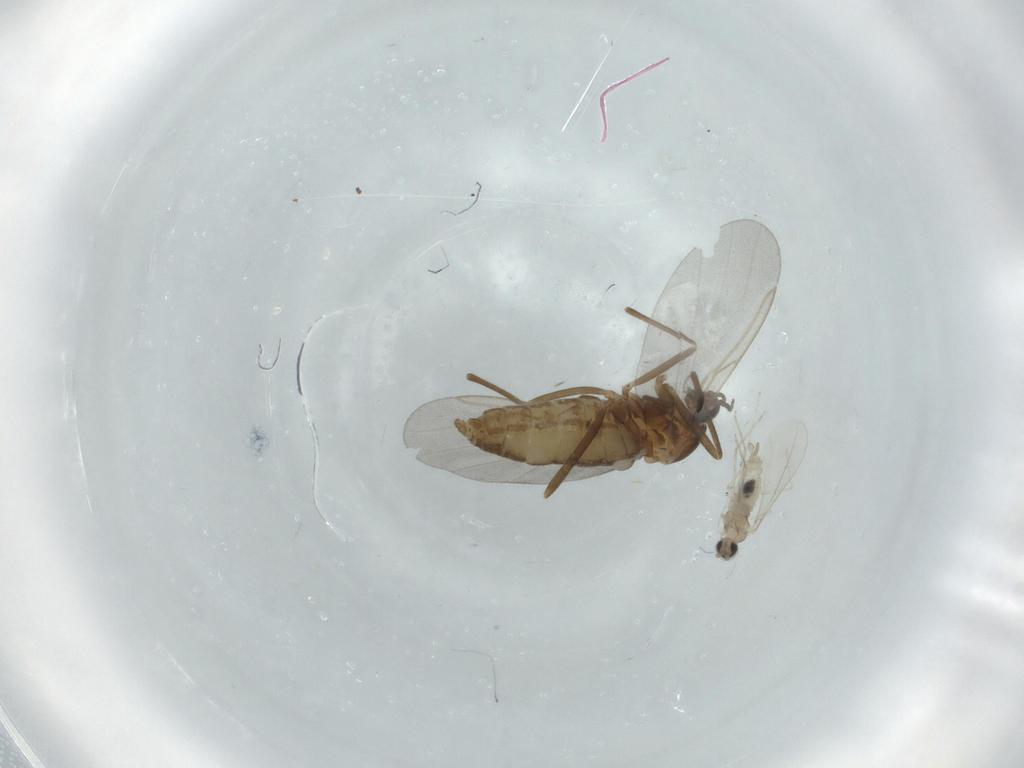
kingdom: Animalia
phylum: Arthropoda
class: Insecta
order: Diptera
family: Cecidomyiidae
